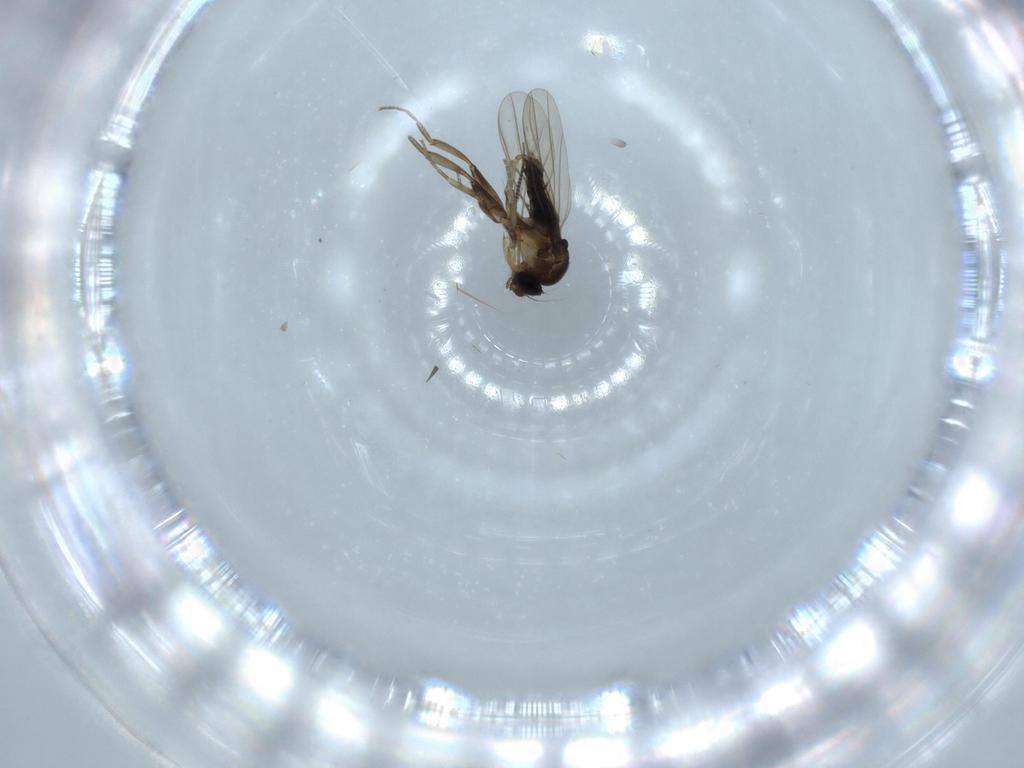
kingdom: Animalia
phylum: Arthropoda
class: Insecta
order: Diptera
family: Phoridae
